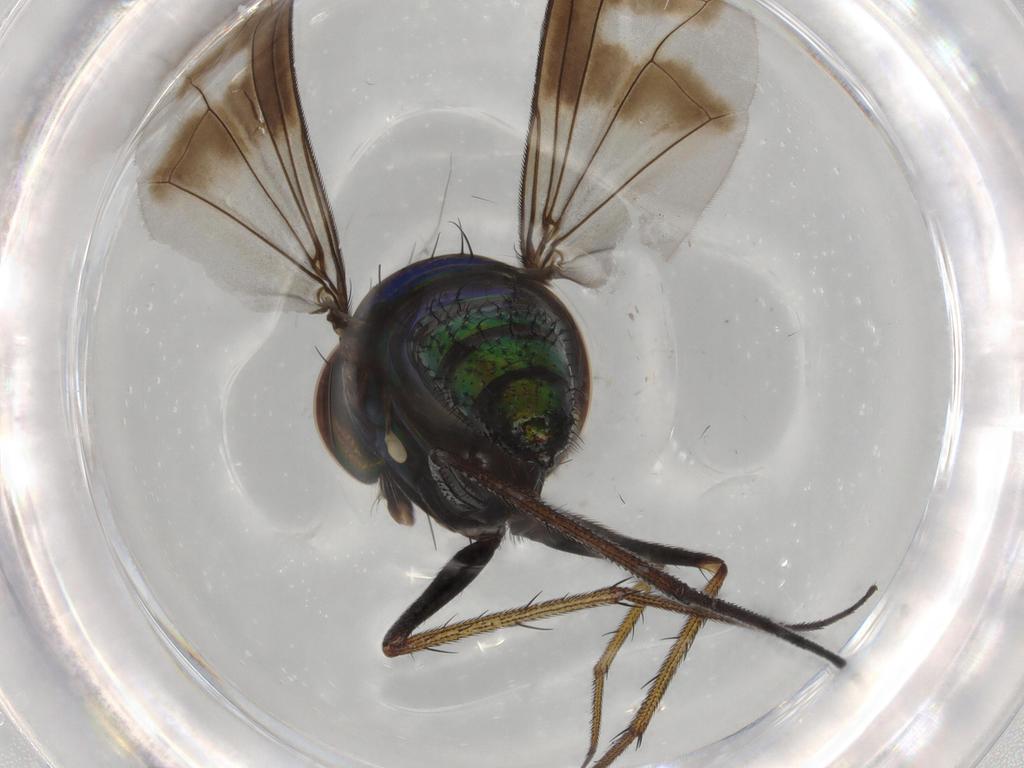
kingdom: Animalia
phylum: Arthropoda
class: Insecta
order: Diptera
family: Dolichopodidae
